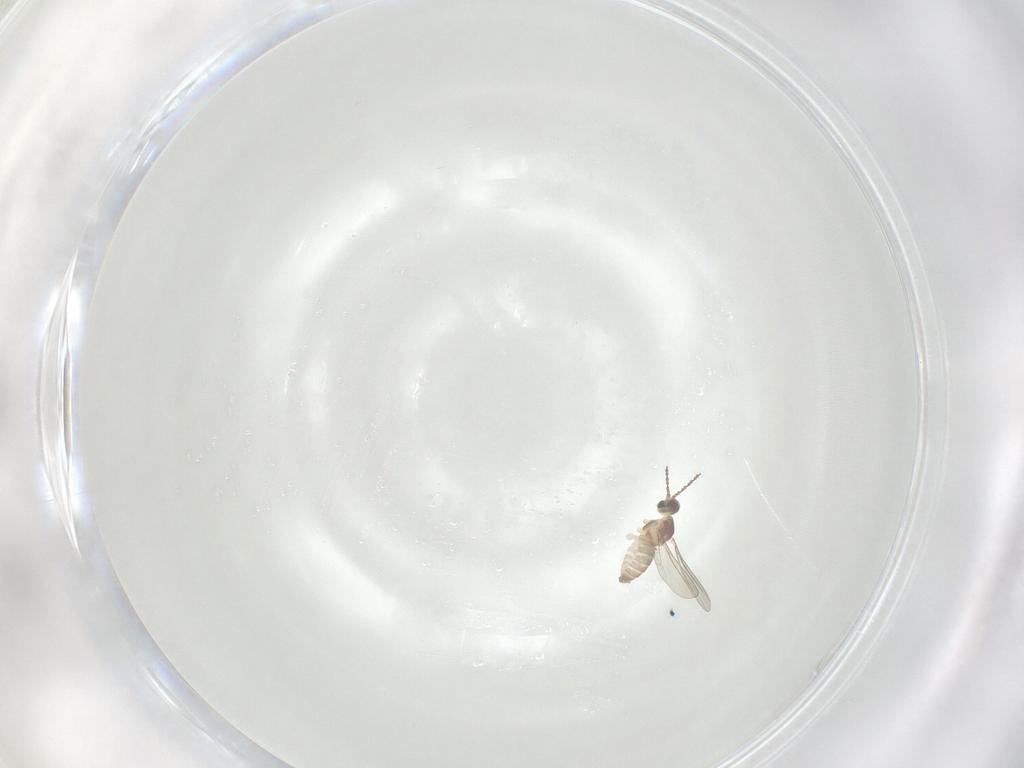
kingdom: Animalia
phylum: Arthropoda
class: Insecta
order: Diptera
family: Cecidomyiidae
